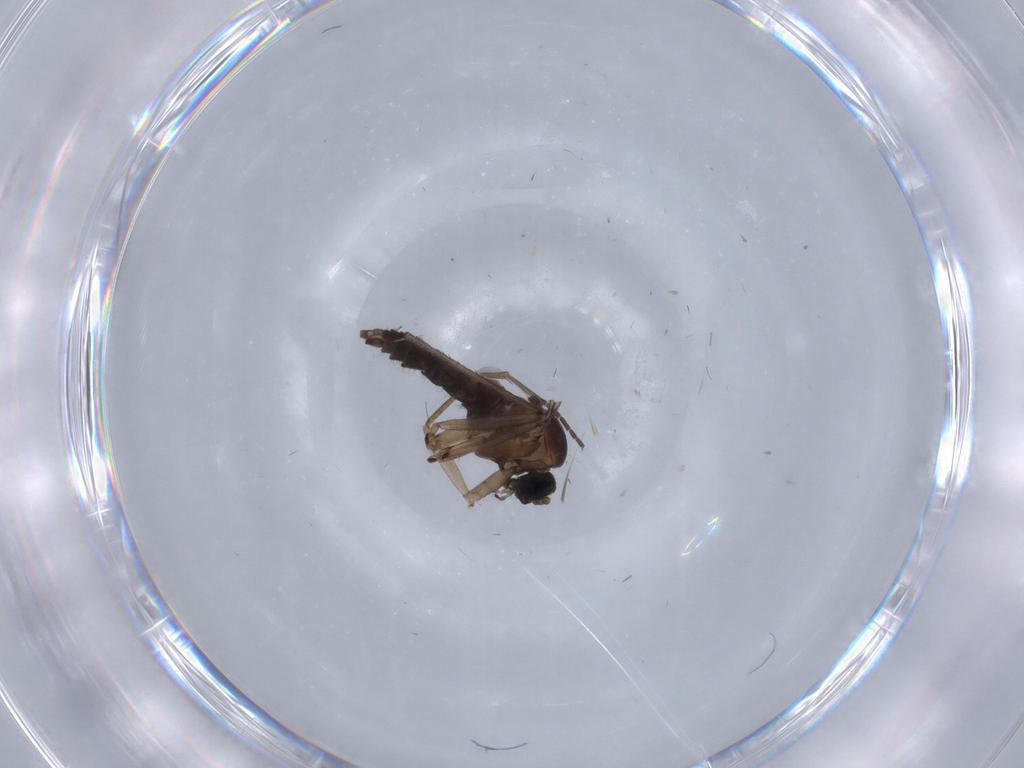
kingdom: Animalia
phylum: Arthropoda
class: Insecta
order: Diptera
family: Sciaridae
